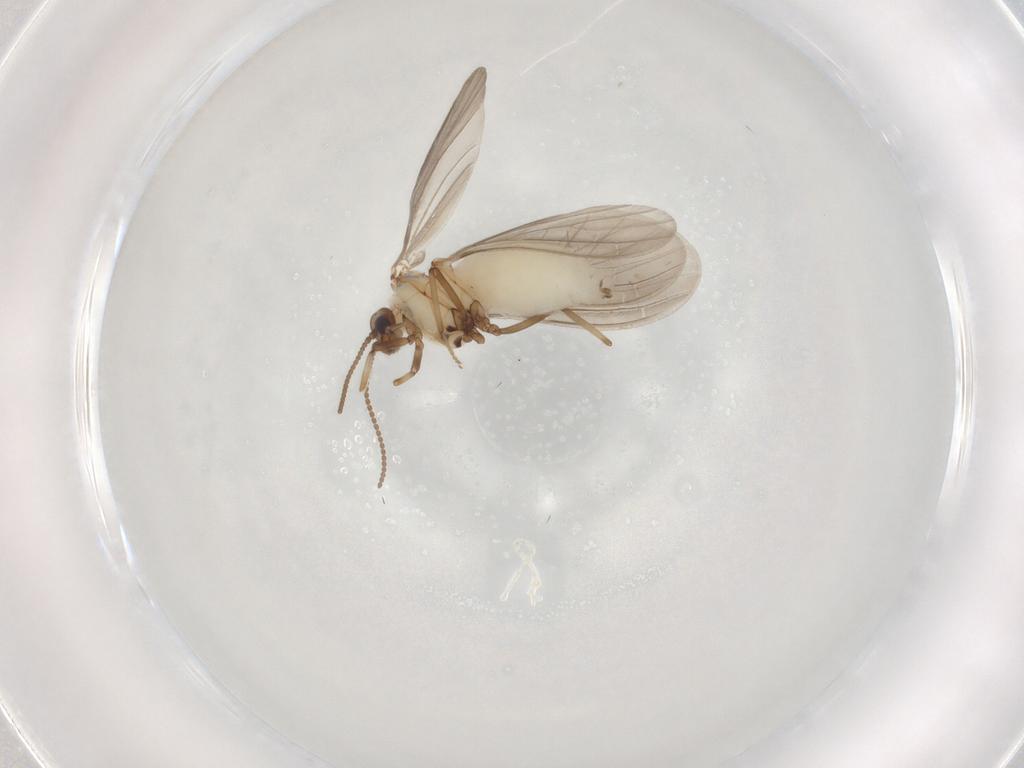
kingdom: Animalia
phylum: Arthropoda
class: Insecta
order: Neuroptera
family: Coniopterygidae
